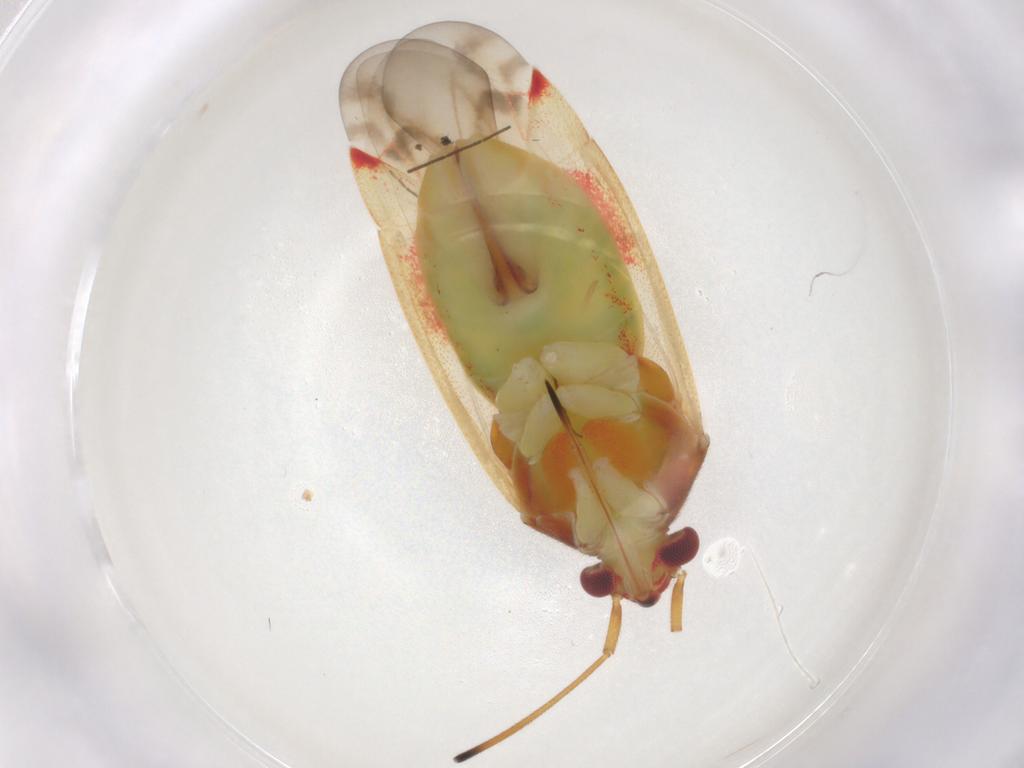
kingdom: Animalia
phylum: Arthropoda
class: Insecta
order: Hemiptera
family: Miridae
